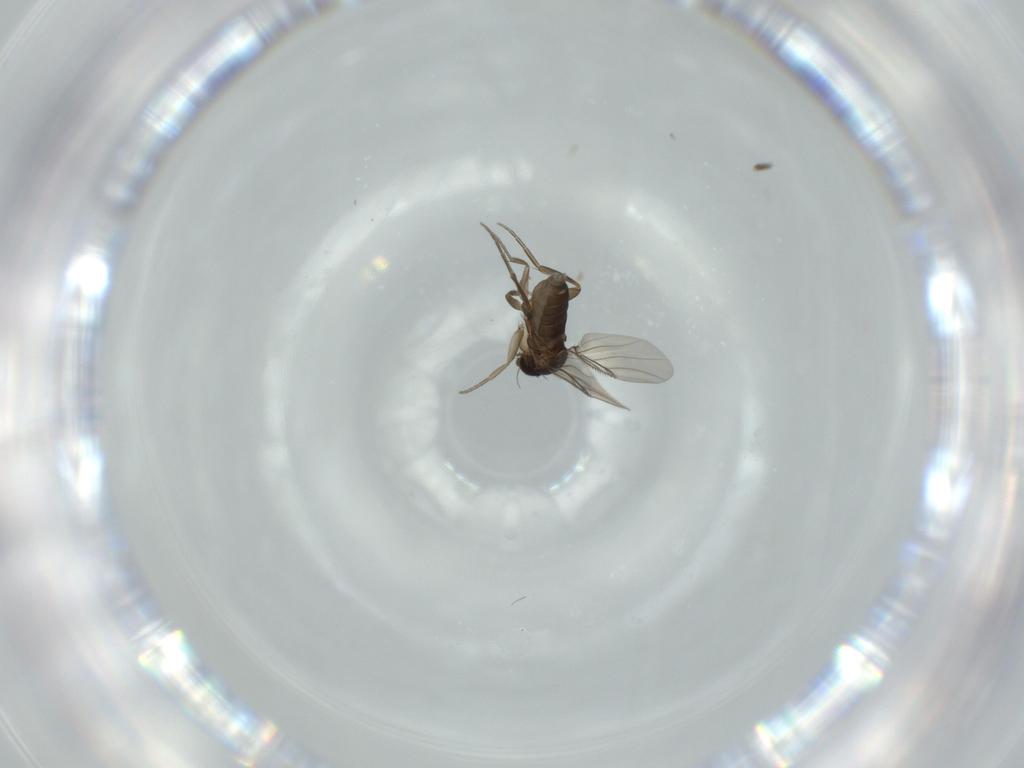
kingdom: Animalia
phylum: Arthropoda
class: Insecta
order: Diptera
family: Phoridae
